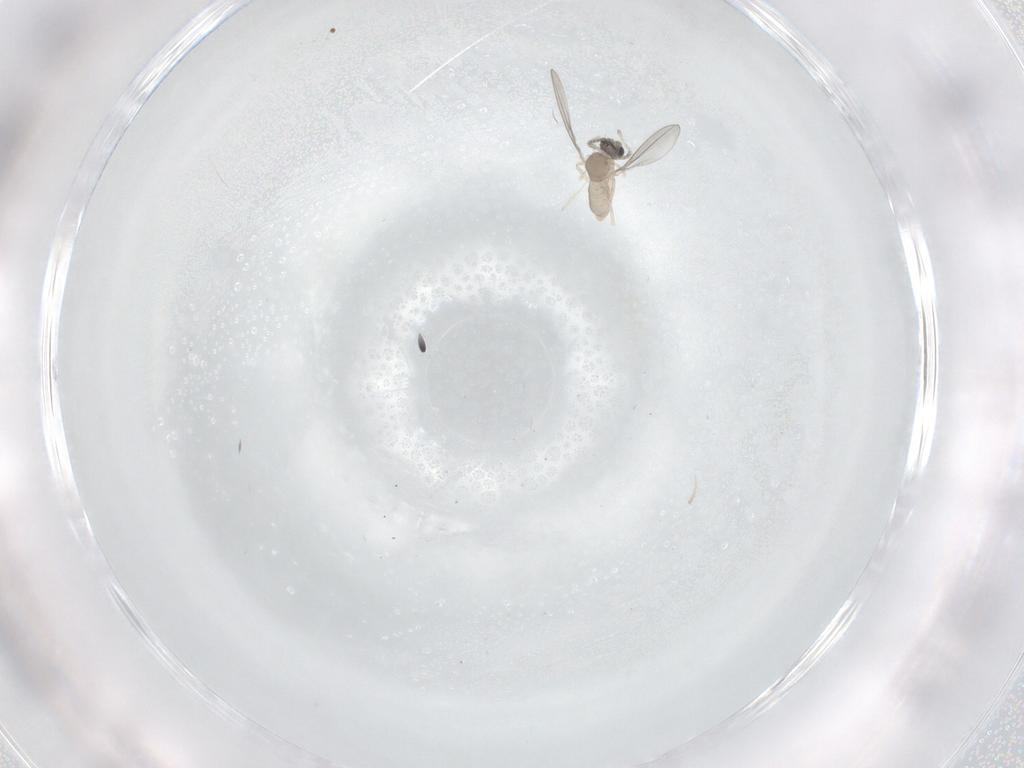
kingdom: Animalia
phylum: Arthropoda
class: Insecta
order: Diptera
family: Cecidomyiidae
